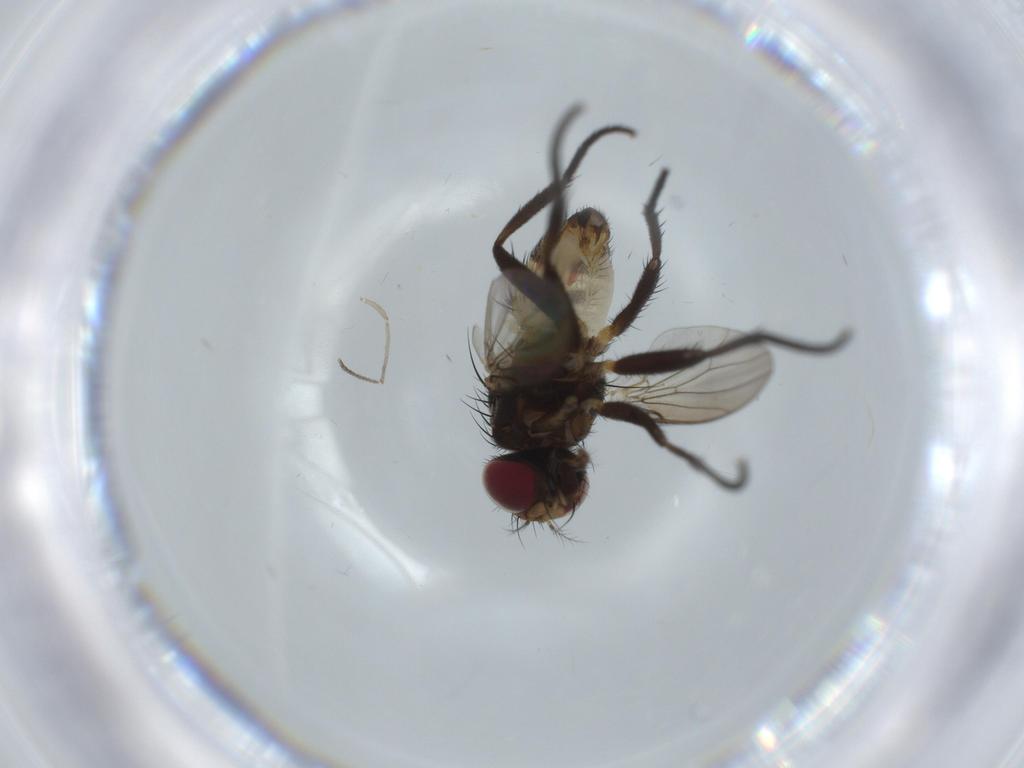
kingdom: Animalia
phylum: Arthropoda
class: Insecta
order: Diptera
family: Anthomyiidae
